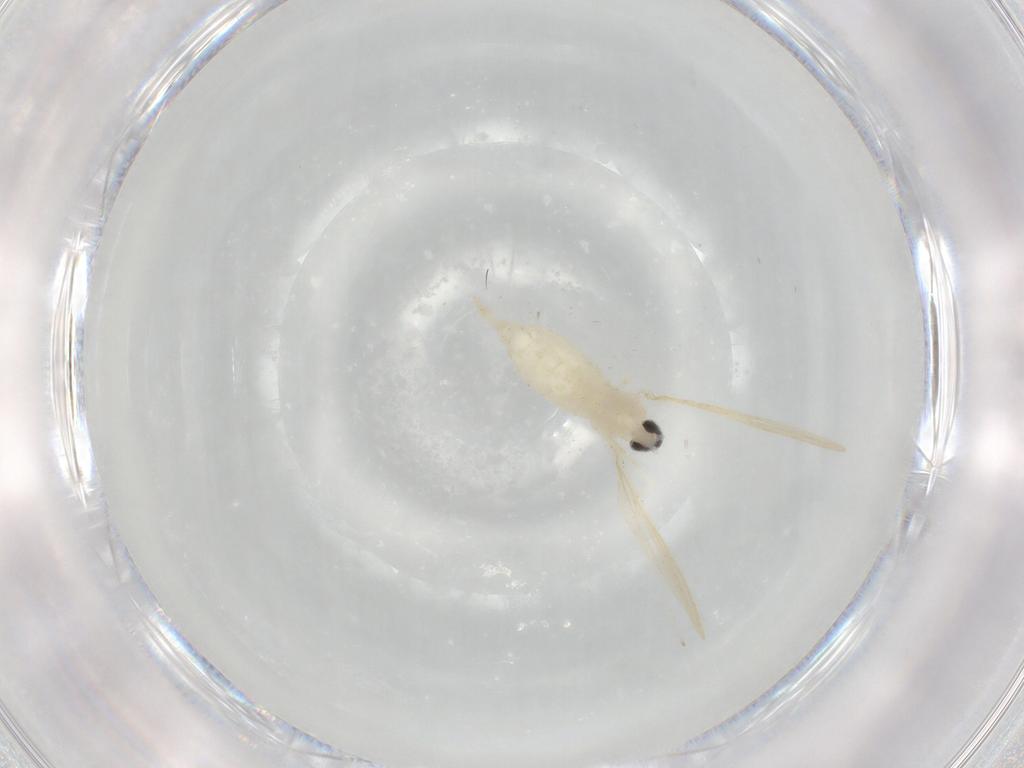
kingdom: Animalia
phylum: Arthropoda
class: Insecta
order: Diptera
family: Cecidomyiidae
